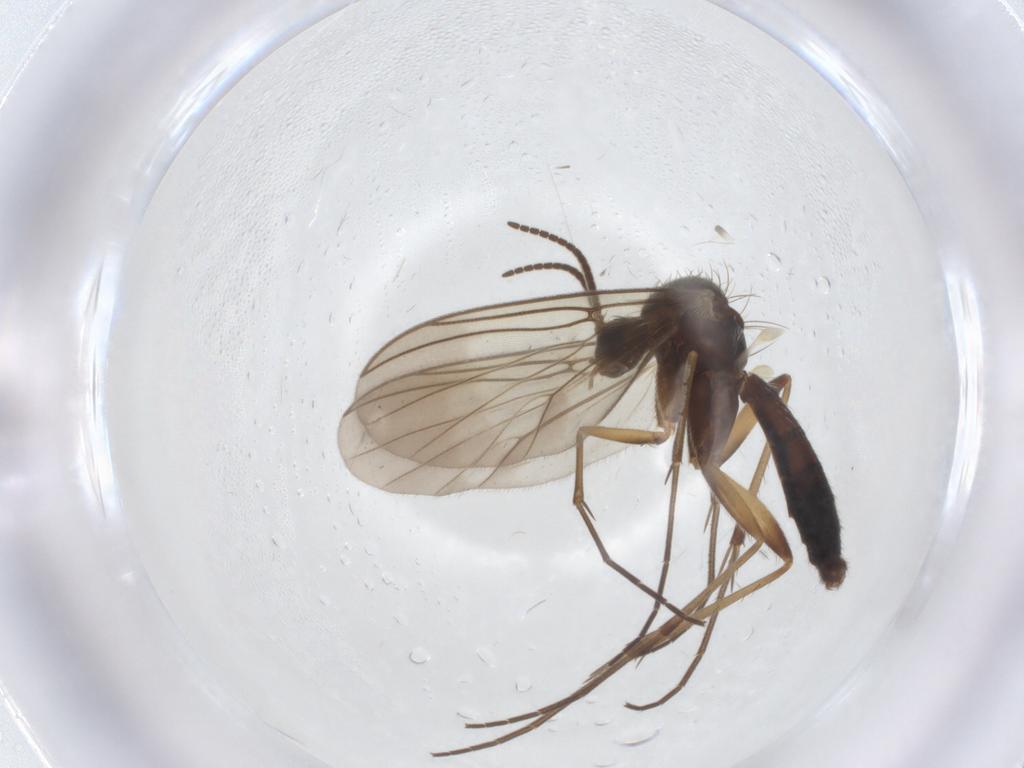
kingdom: Animalia
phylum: Arthropoda
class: Insecta
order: Diptera
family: Mycetophilidae
